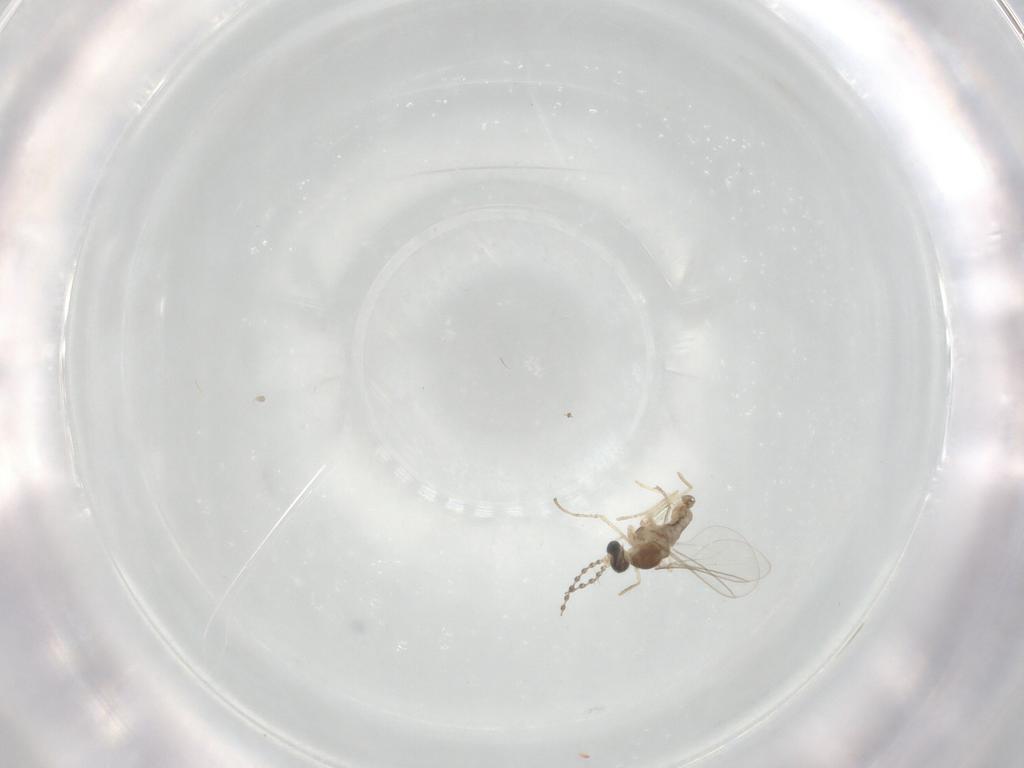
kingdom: Animalia
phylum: Arthropoda
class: Insecta
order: Diptera
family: Cecidomyiidae
